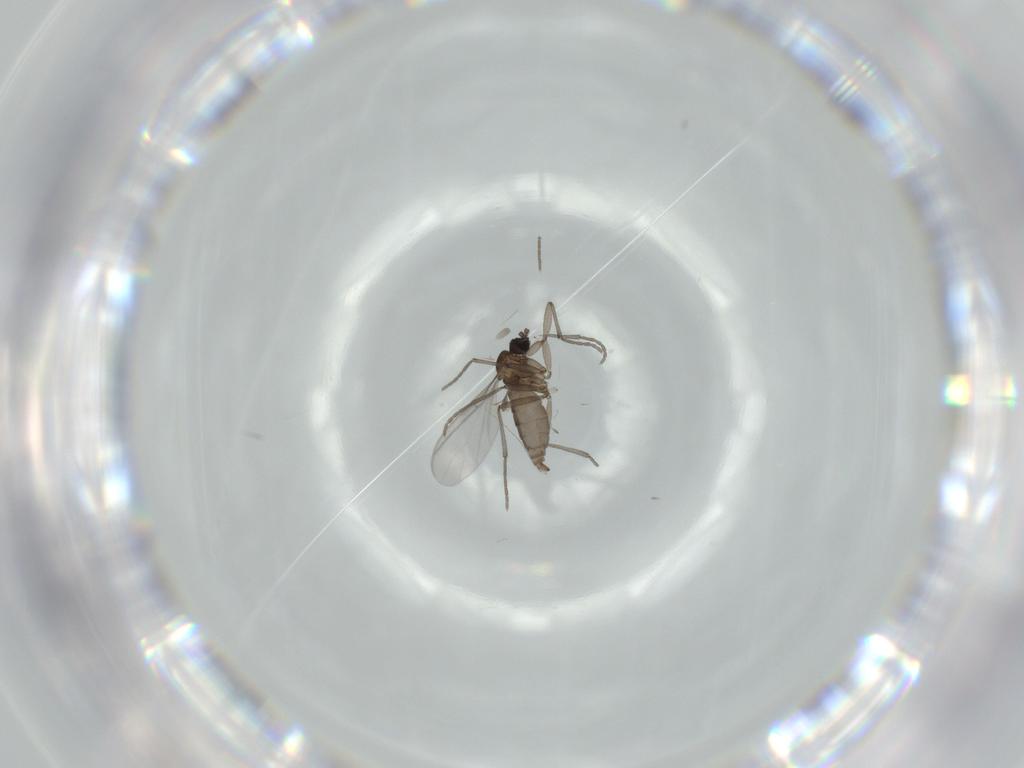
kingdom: Animalia
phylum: Arthropoda
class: Insecta
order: Diptera
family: Sciaridae
